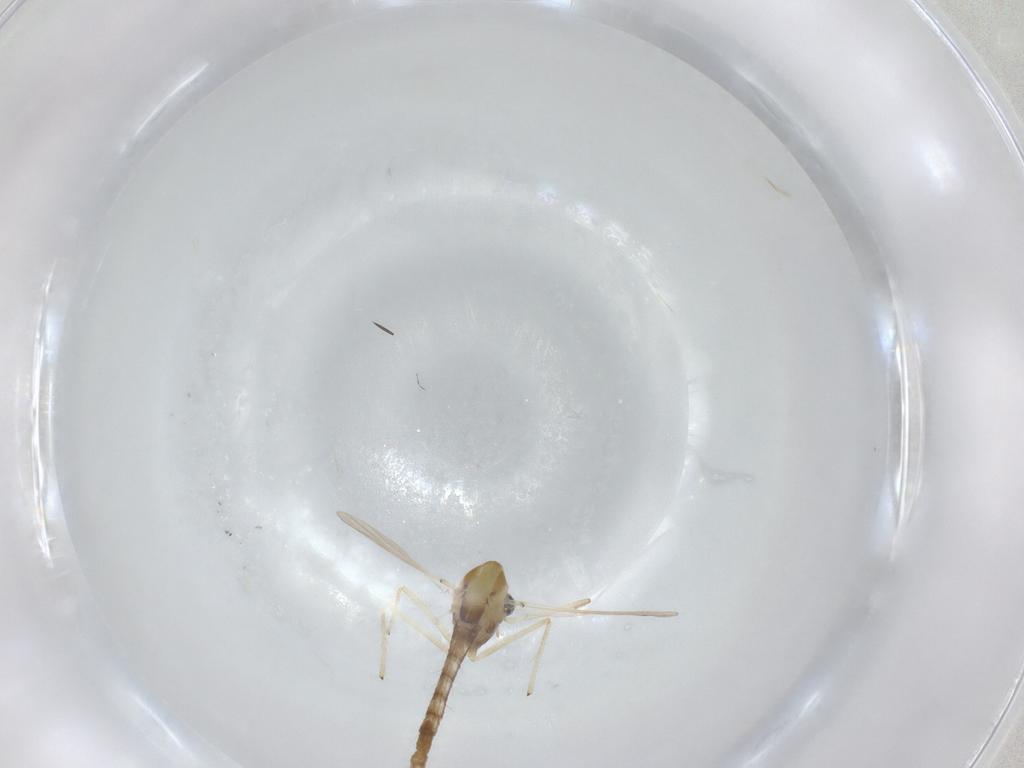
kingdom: Animalia
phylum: Arthropoda
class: Insecta
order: Diptera
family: Chironomidae
